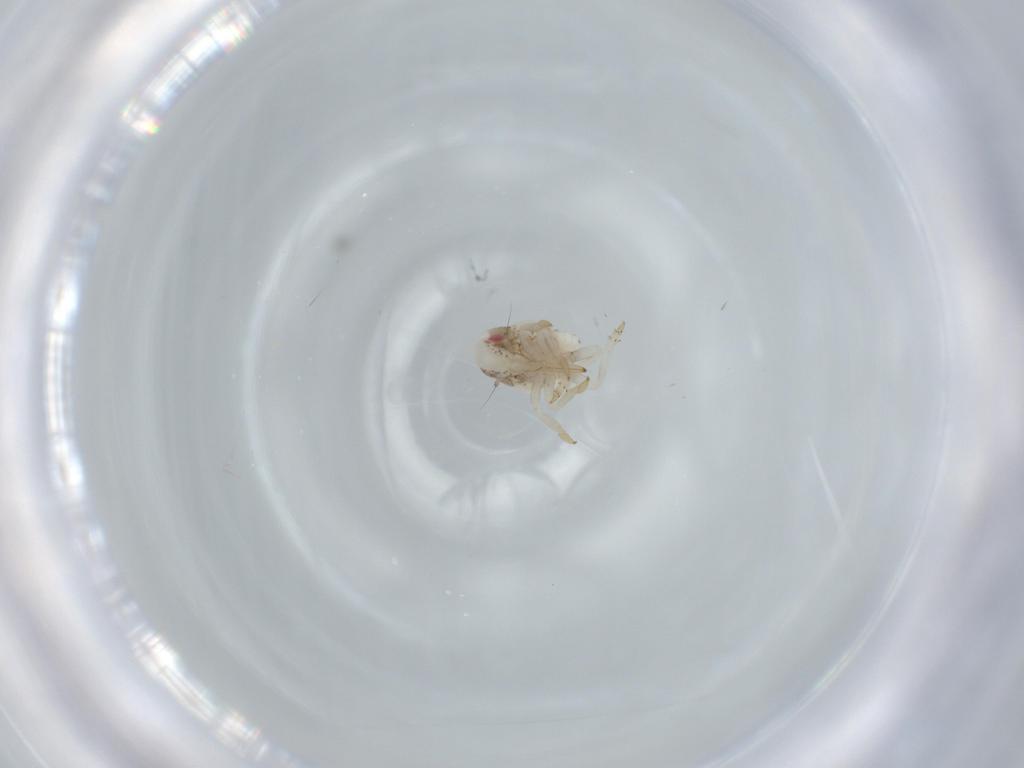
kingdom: Animalia
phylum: Arthropoda
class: Insecta
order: Hemiptera
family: Acanaloniidae
